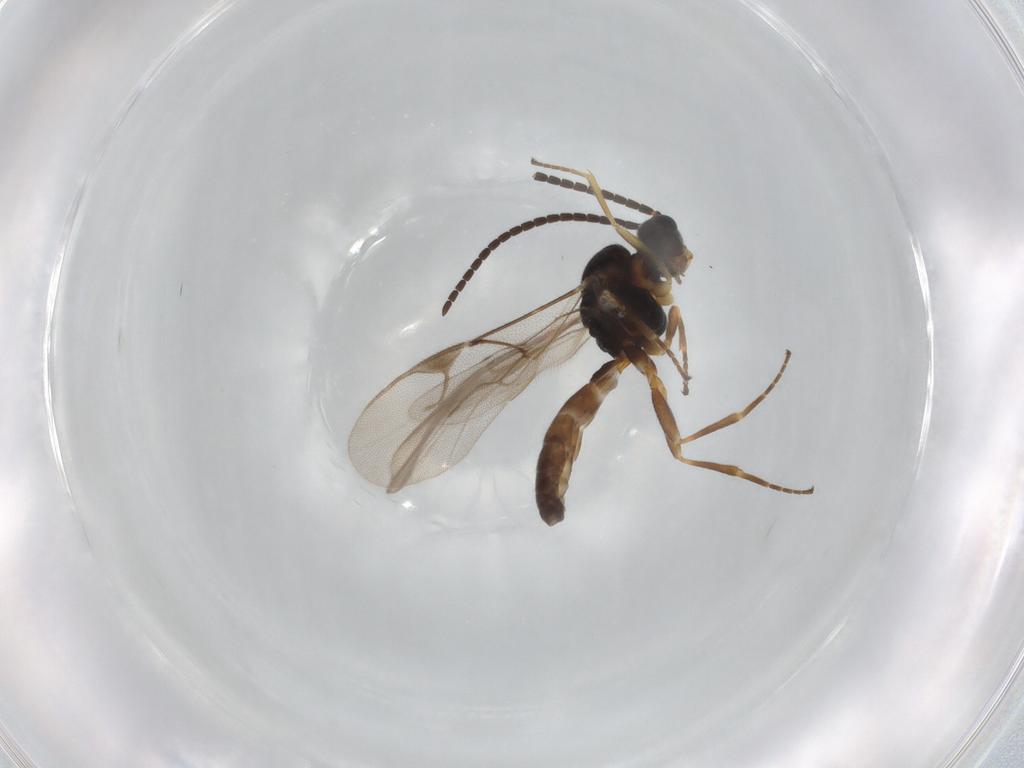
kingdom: Animalia
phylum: Arthropoda
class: Insecta
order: Hymenoptera
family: Braconidae
